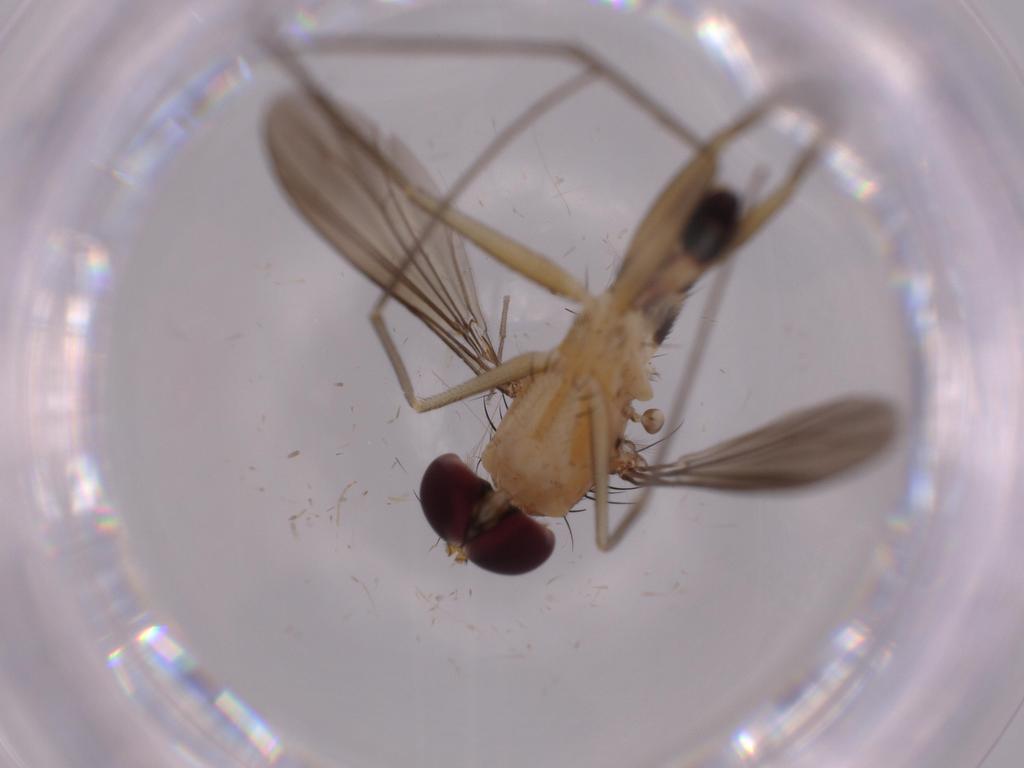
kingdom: Animalia
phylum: Arthropoda
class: Insecta
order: Diptera
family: Dolichopodidae
